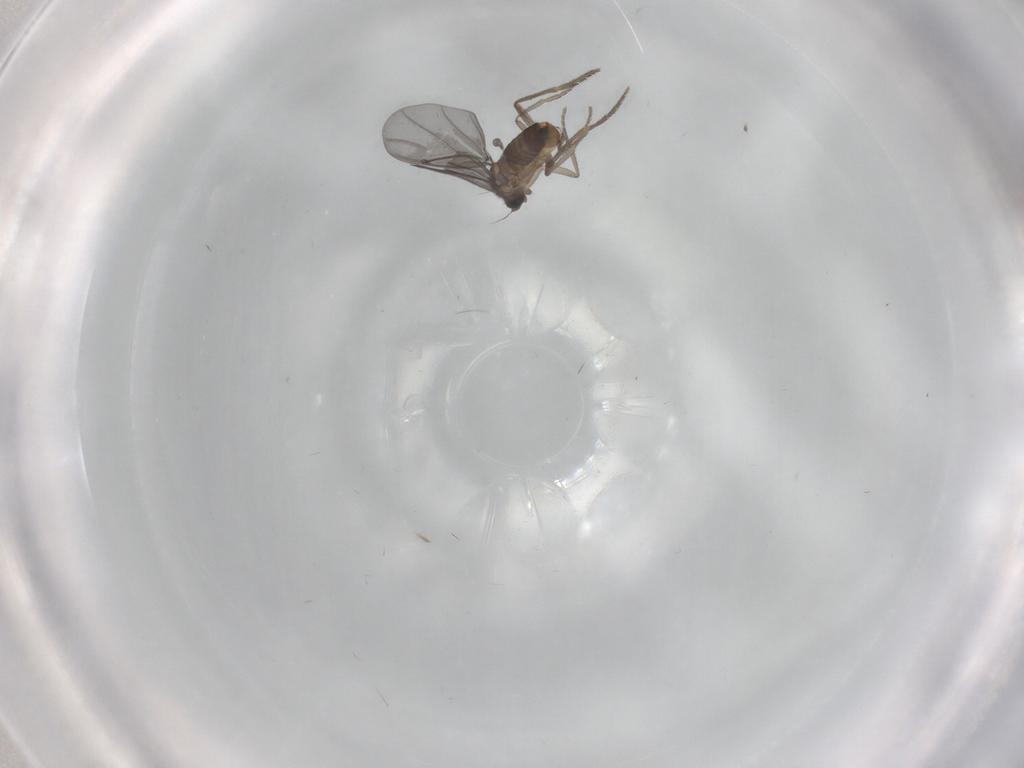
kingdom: Animalia
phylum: Arthropoda
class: Insecta
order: Diptera
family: Phoridae
